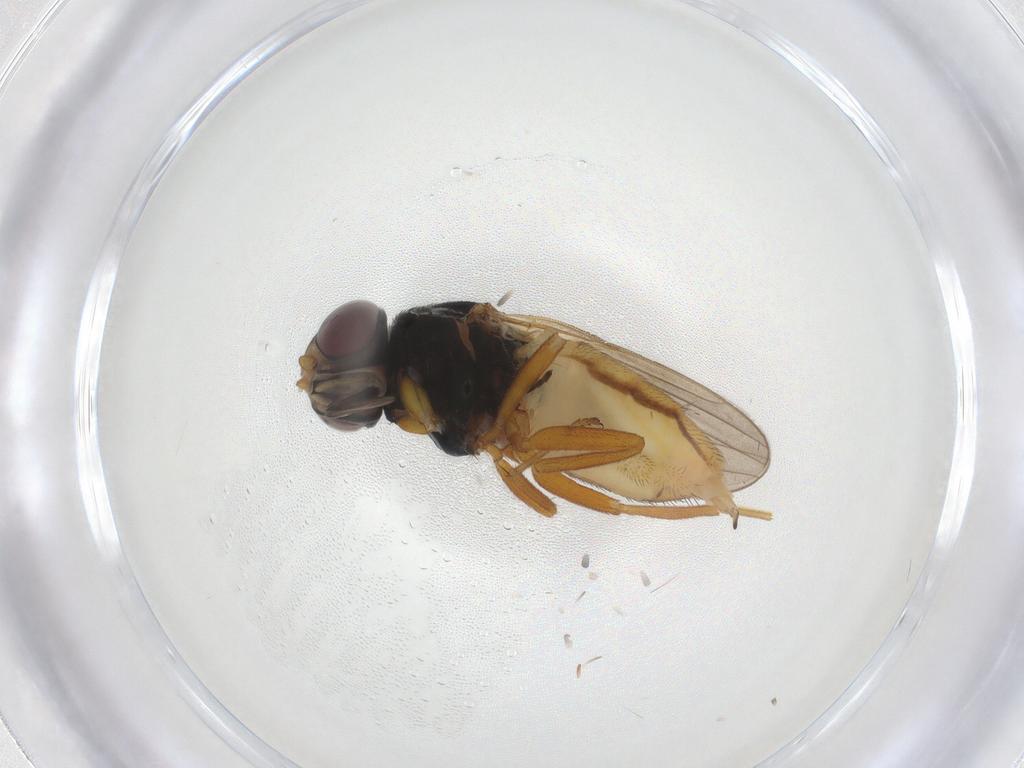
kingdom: Animalia
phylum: Arthropoda
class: Insecta
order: Diptera
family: Chloropidae
